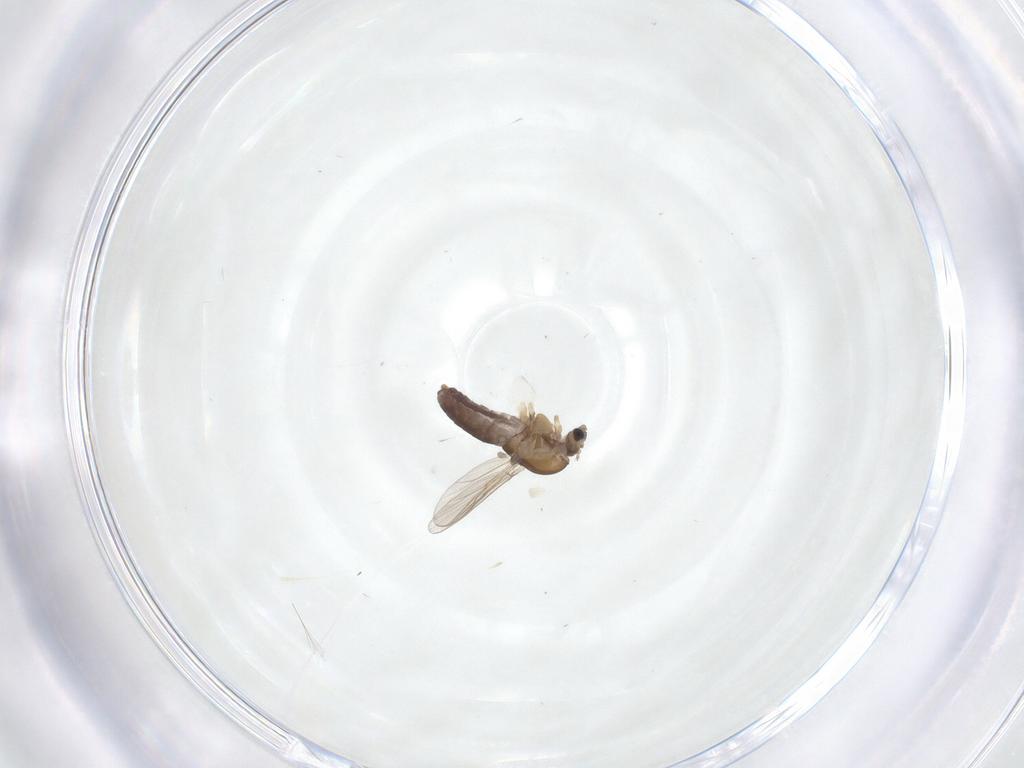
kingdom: Animalia
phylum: Arthropoda
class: Insecta
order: Diptera
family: Chironomidae
